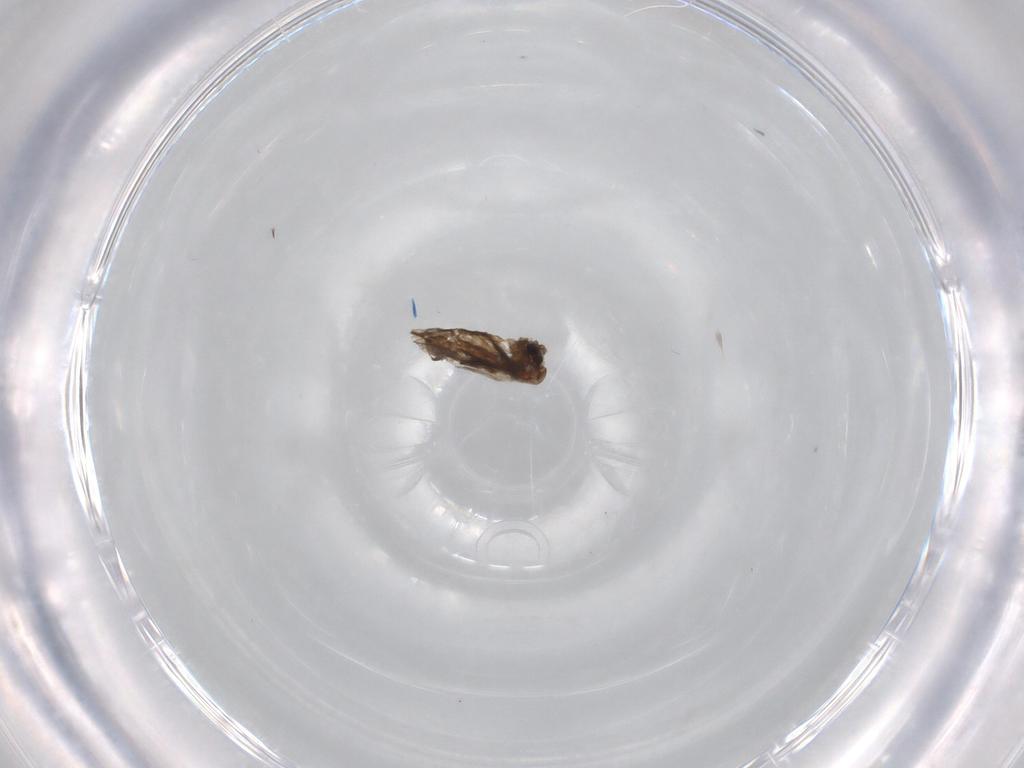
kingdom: Animalia
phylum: Arthropoda
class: Insecta
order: Diptera
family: Psychodidae
